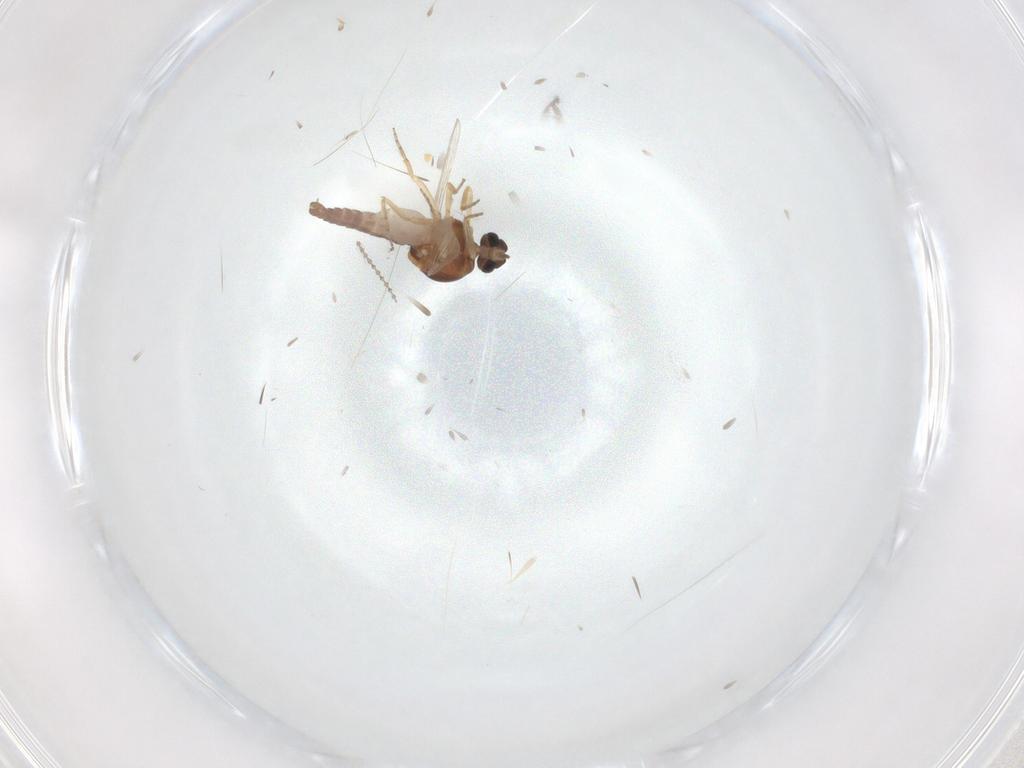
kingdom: Animalia
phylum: Arthropoda
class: Insecta
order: Diptera
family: Ceratopogonidae
